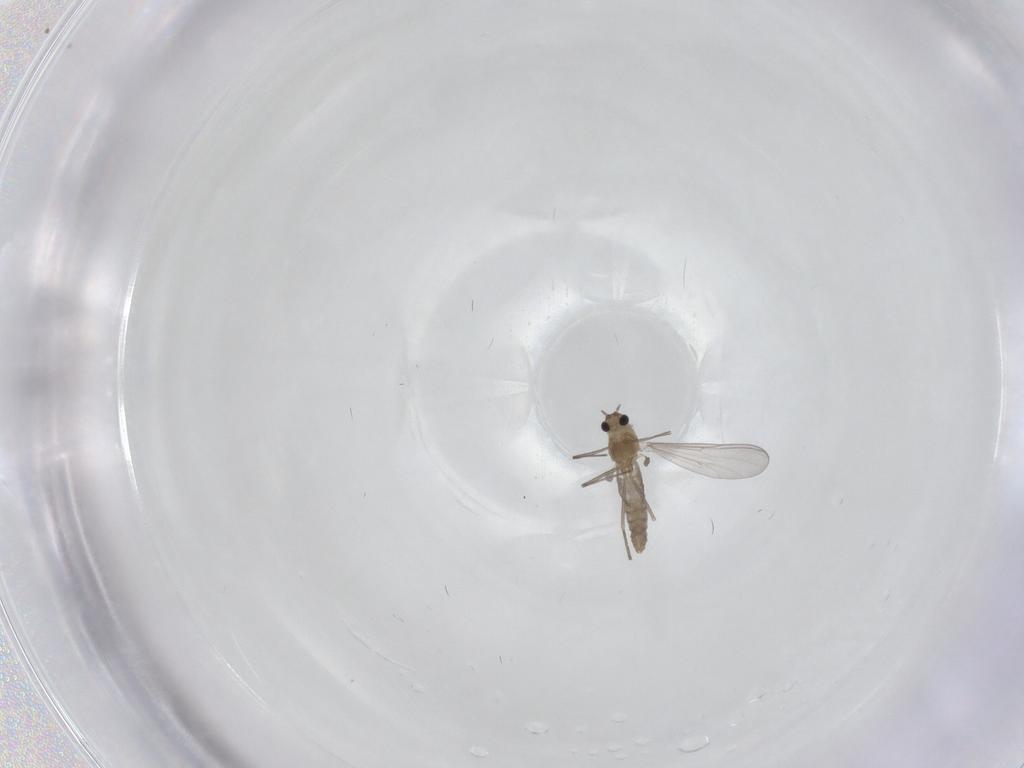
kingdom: Animalia
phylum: Arthropoda
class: Insecta
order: Diptera
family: Chironomidae
